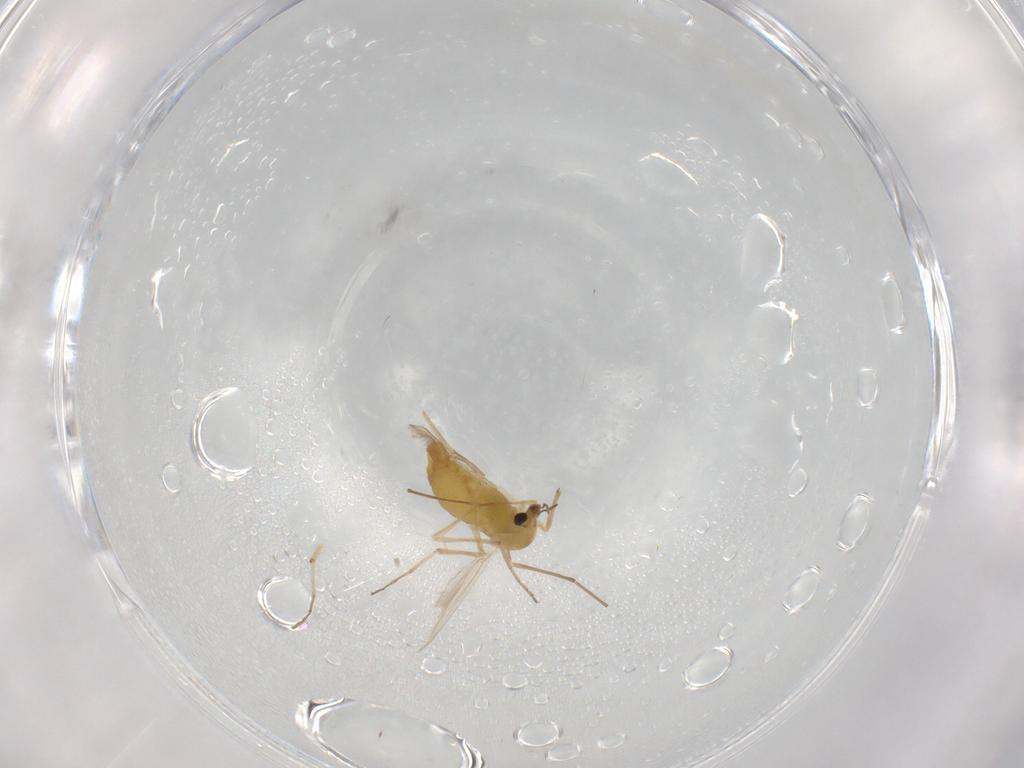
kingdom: Animalia
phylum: Arthropoda
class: Insecta
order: Diptera
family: Chironomidae
